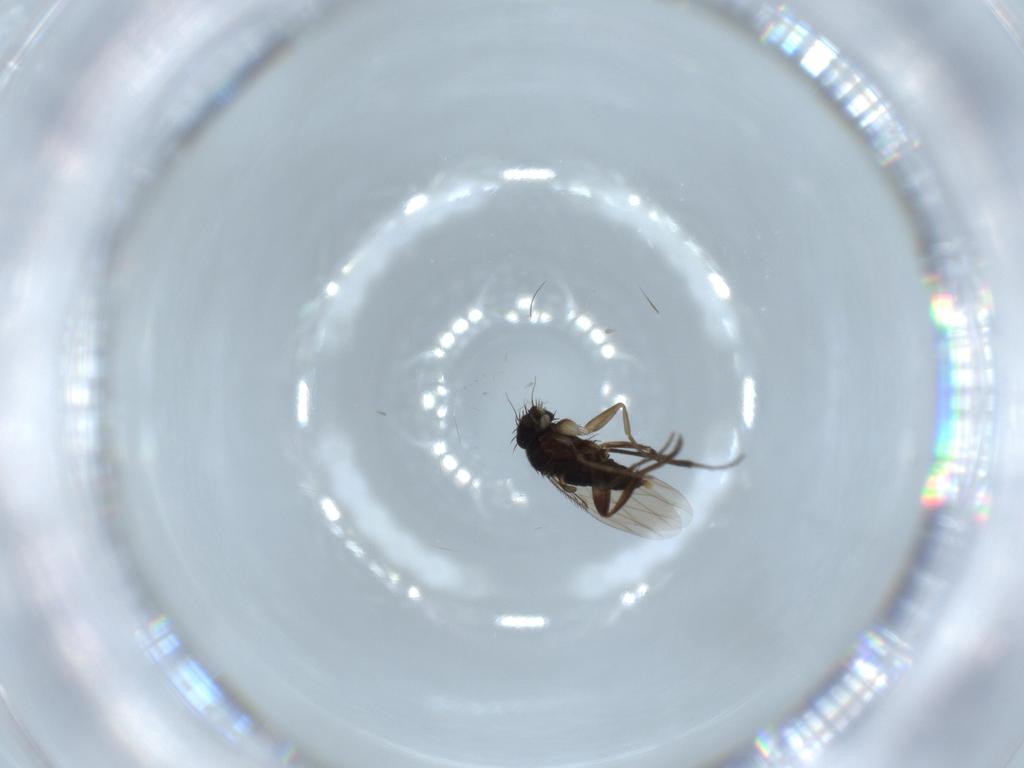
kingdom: Animalia
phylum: Arthropoda
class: Insecta
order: Diptera
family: Phoridae
